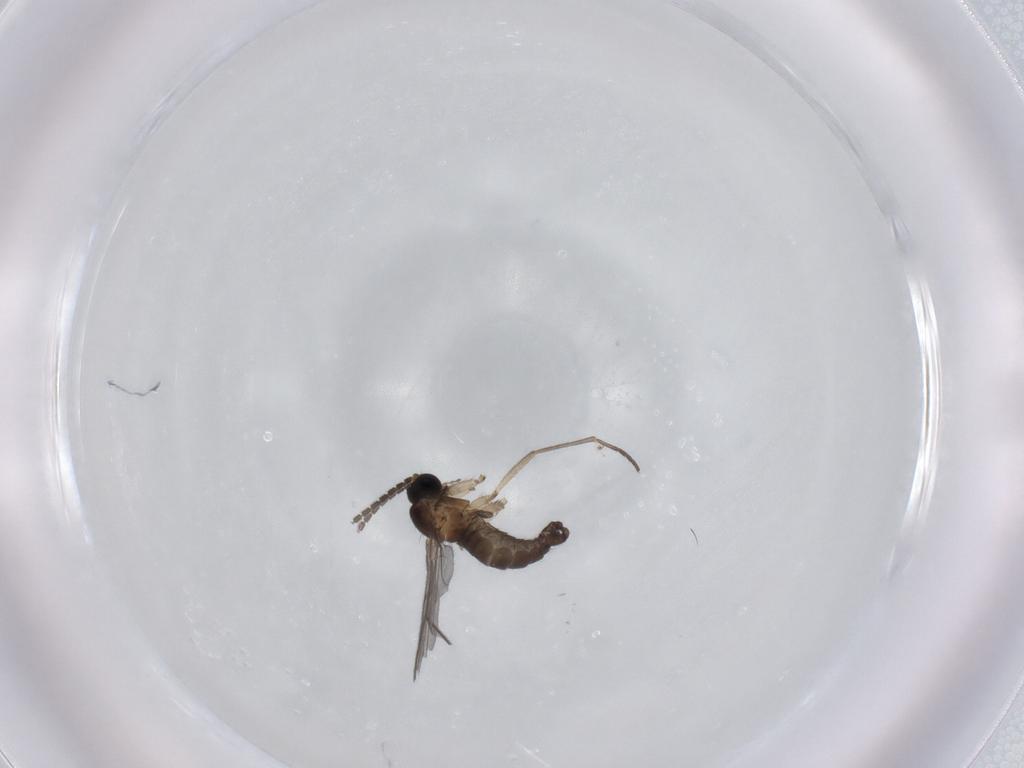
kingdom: Animalia
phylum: Arthropoda
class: Insecta
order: Diptera
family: Sciaridae
